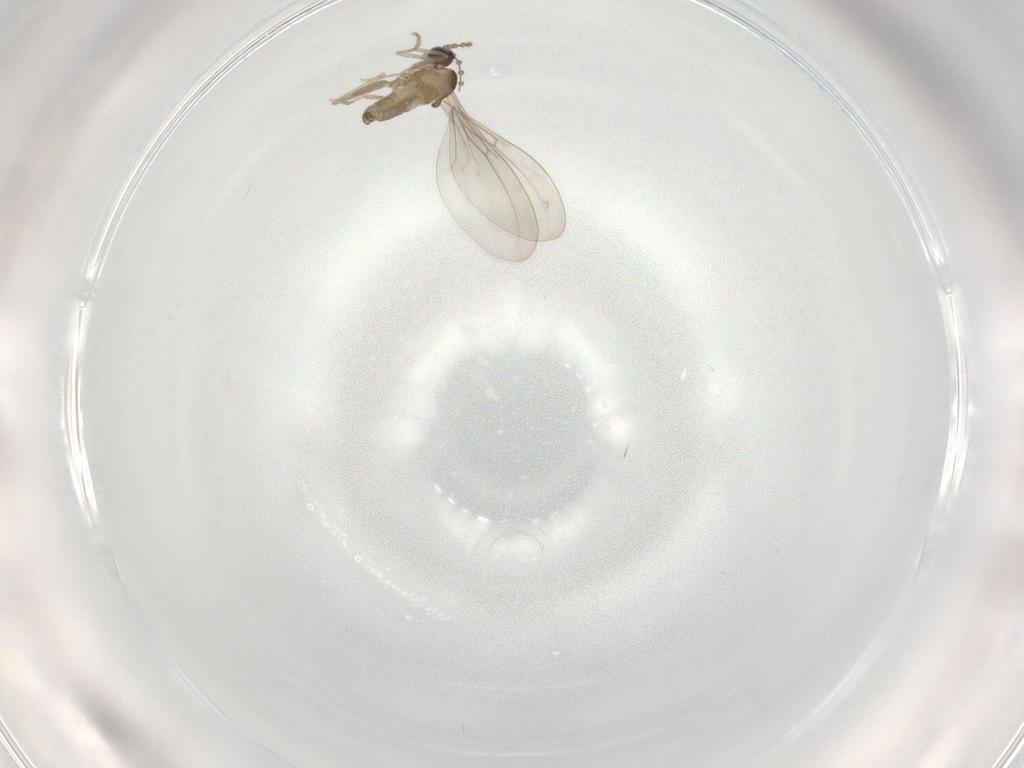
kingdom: Animalia
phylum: Arthropoda
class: Insecta
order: Diptera
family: Cecidomyiidae
